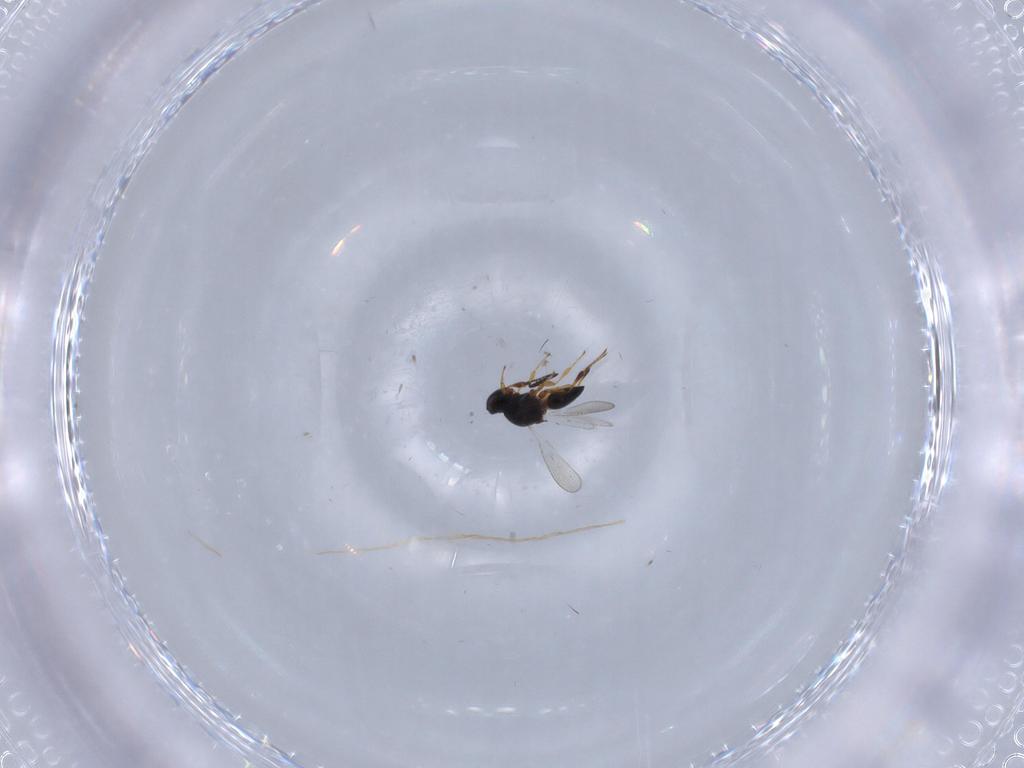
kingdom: Animalia
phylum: Arthropoda
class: Insecta
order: Hymenoptera
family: Platygastridae
